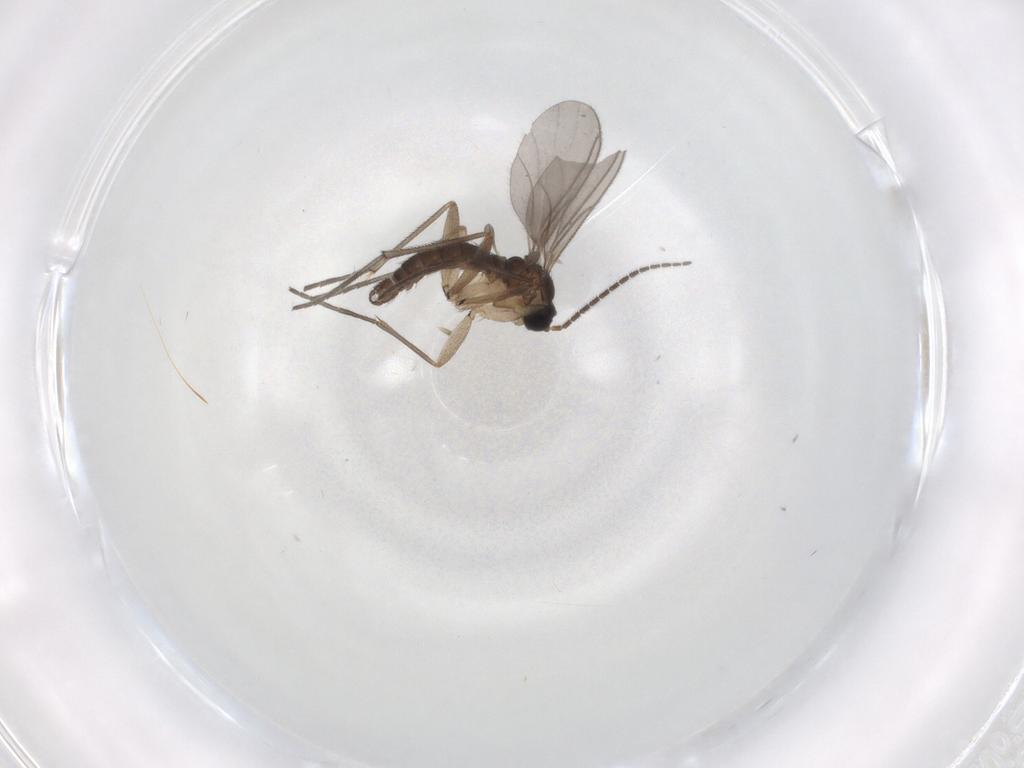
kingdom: Animalia
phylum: Arthropoda
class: Insecta
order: Diptera
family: Sciaridae
